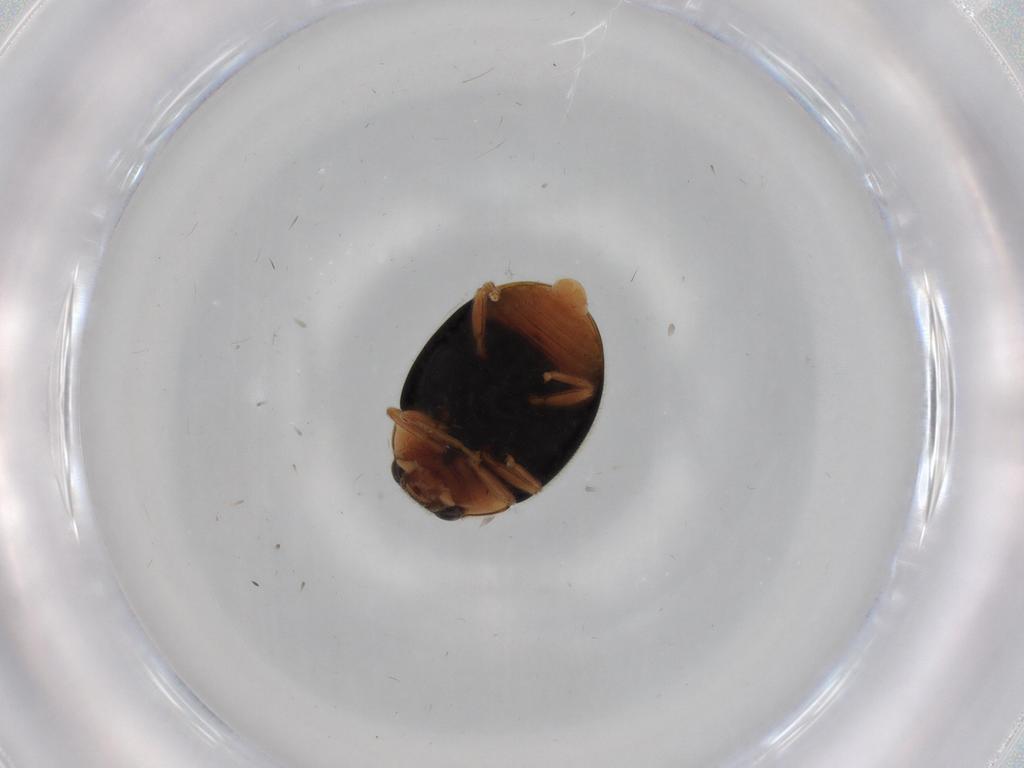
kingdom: Animalia
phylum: Arthropoda
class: Insecta
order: Coleoptera
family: Coccinellidae
